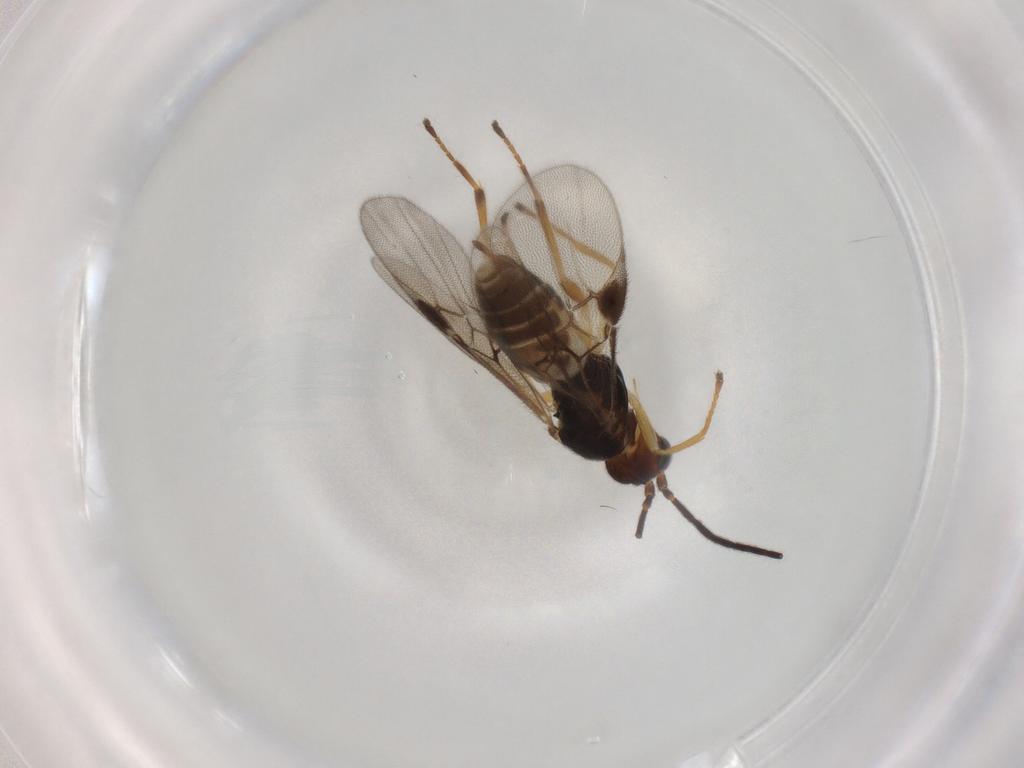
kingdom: Animalia
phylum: Arthropoda
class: Insecta
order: Hymenoptera
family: Braconidae
